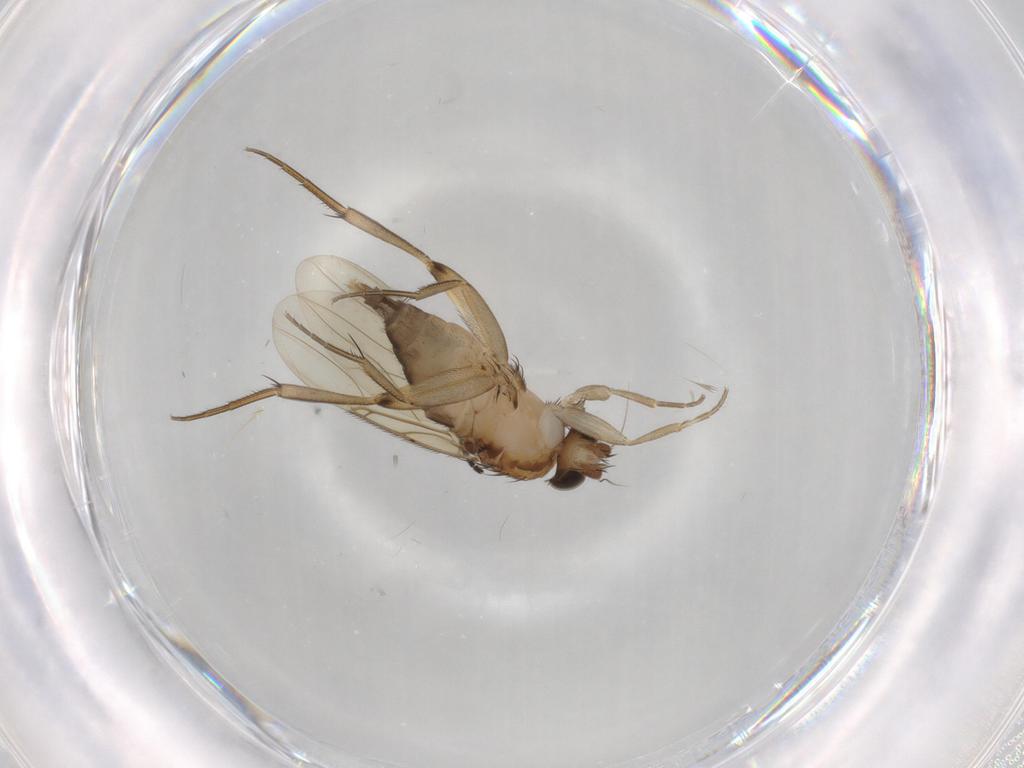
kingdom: Animalia
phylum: Arthropoda
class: Insecta
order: Diptera
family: Phoridae
